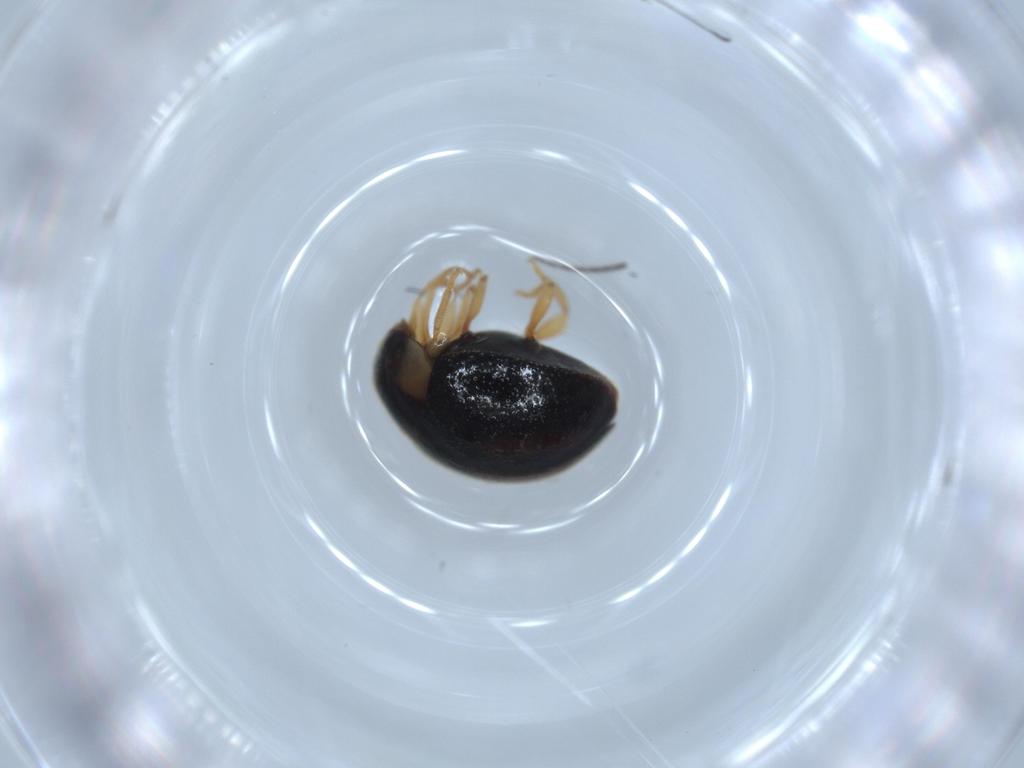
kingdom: Animalia
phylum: Arthropoda
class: Insecta
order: Coleoptera
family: Coccinellidae
